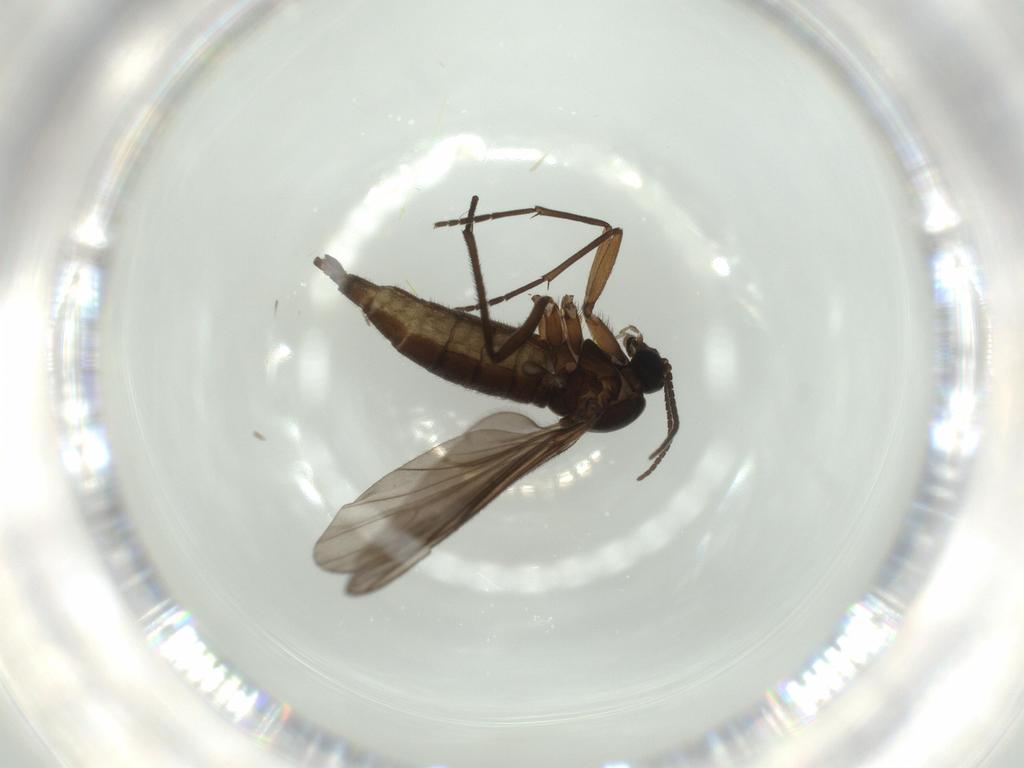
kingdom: Animalia
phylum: Arthropoda
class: Insecta
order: Diptera
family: Sciaridae
